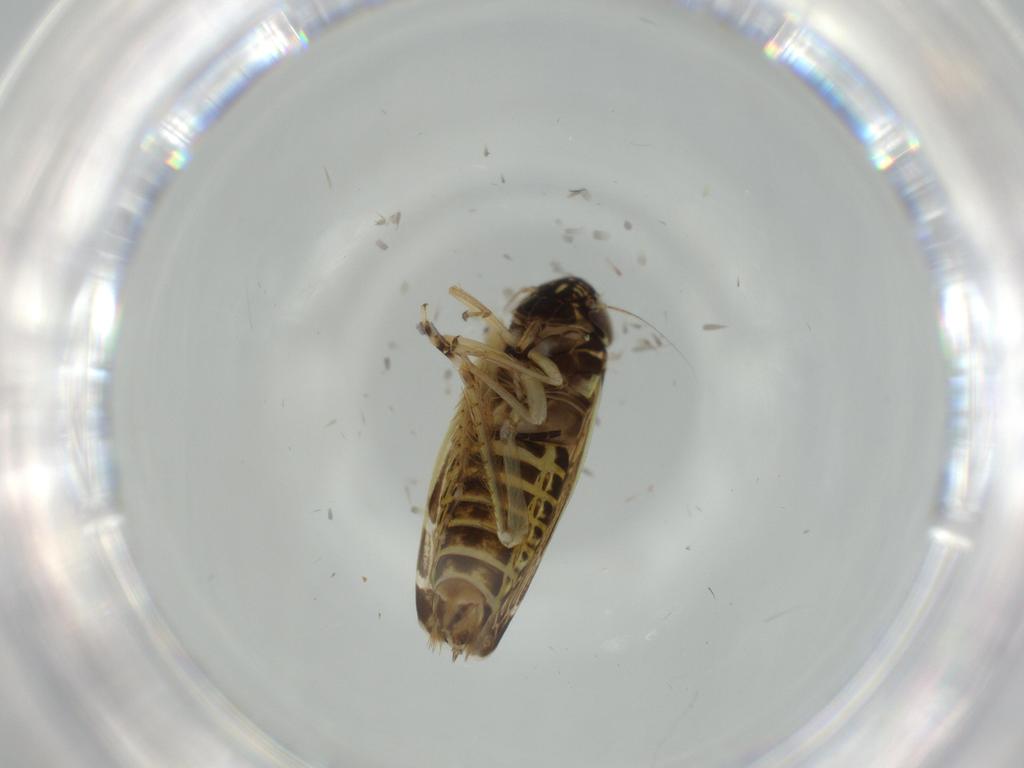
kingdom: Animalia
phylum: Arthropoda
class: Insecta
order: Hemiptera
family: Cicadellidae
